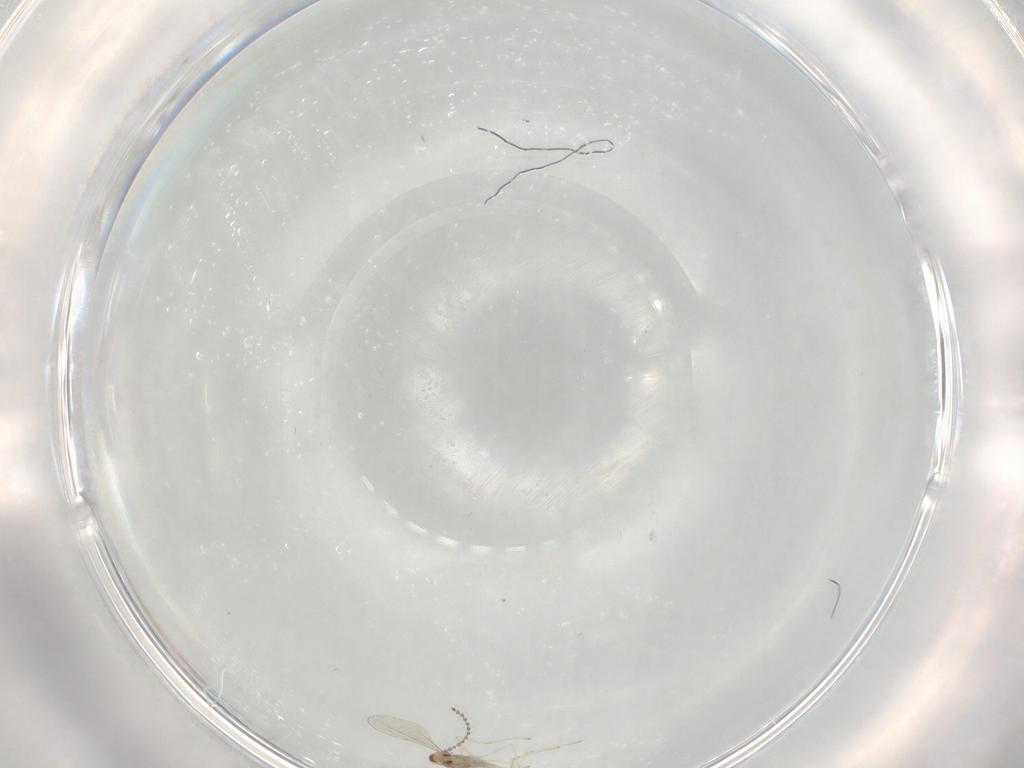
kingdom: Animalia
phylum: Arthropoda
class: Insecta
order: Diptera
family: Cecidomyiidae
